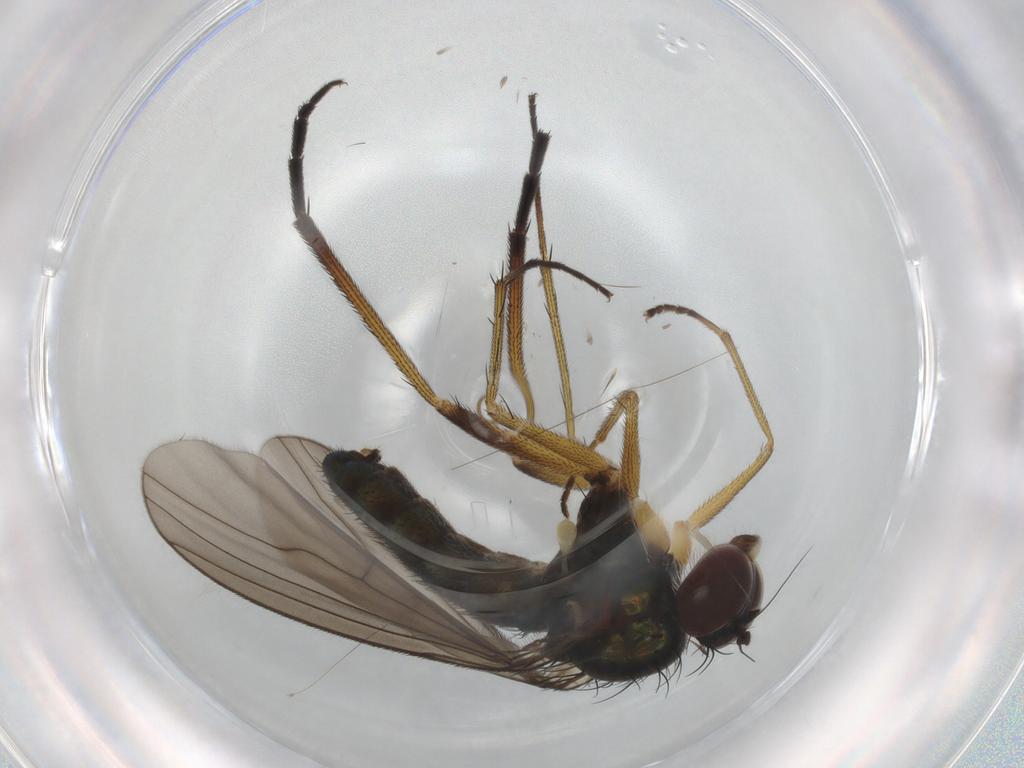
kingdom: Animalia
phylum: Arthropoda
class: Insecta
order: Diptera
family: Dolichopodidae
